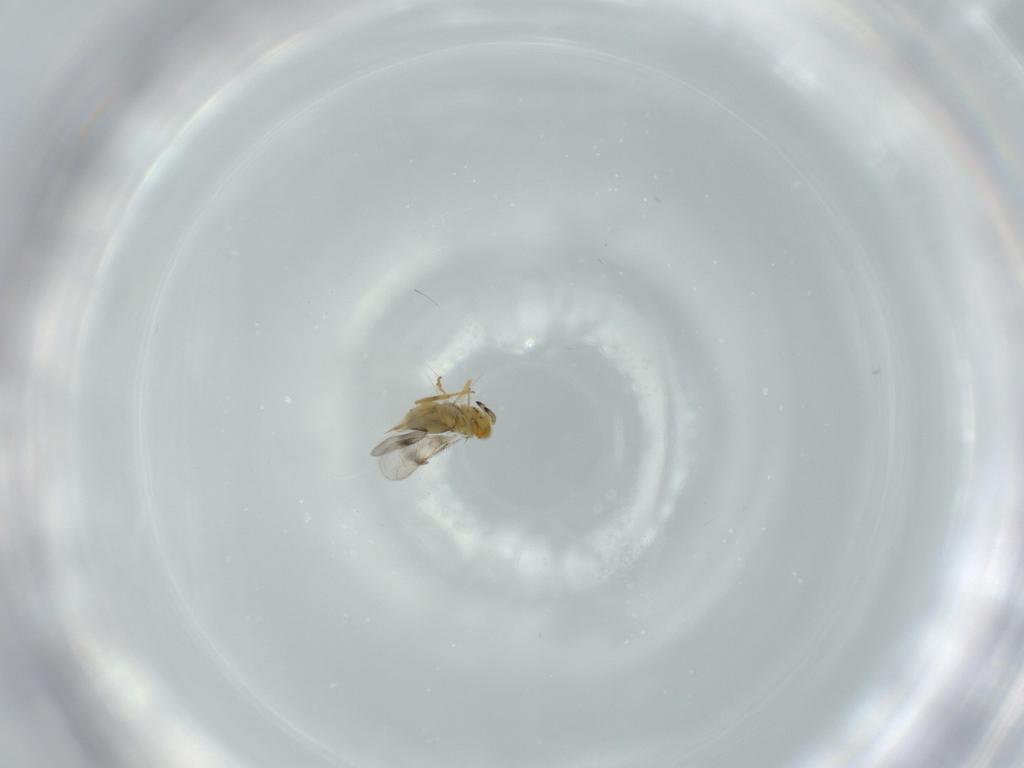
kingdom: Animalia
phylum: Arthropoda
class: Insecta
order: Hymenoptera
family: Aphelinidae
